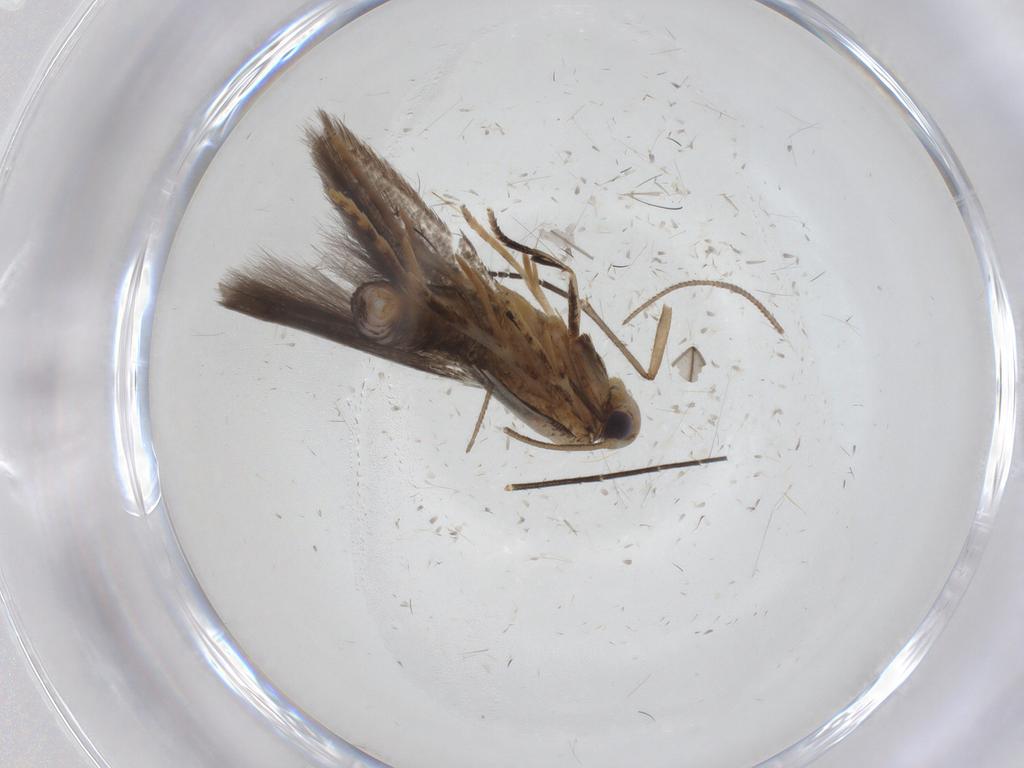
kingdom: Animalia
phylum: Arthropoda
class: Insecta
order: Lepidoptera
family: Oecophoridae
